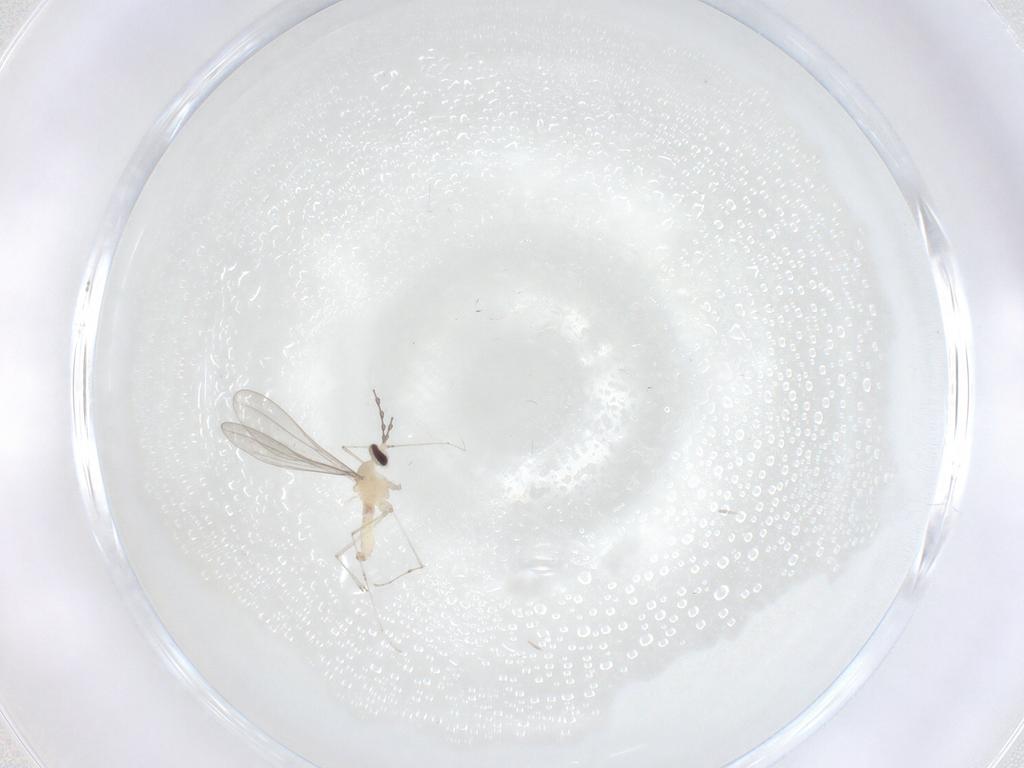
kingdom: Animalia
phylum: Arthropoda
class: Insecta
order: Diptera
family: Cecidomyiidae
